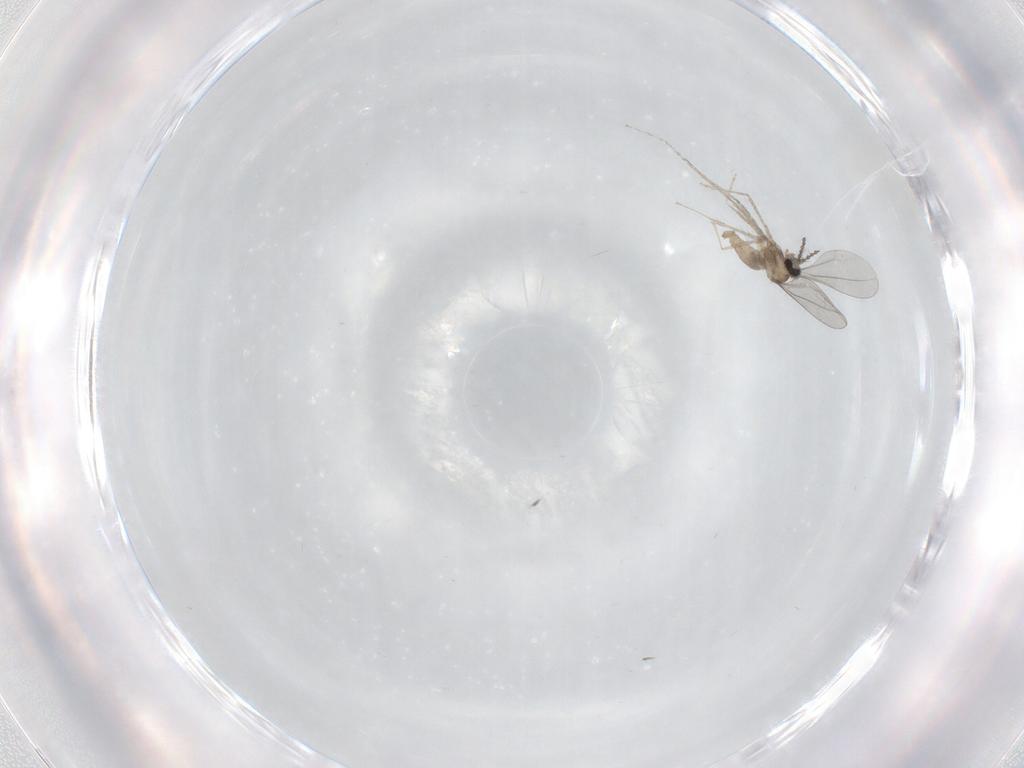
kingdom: Animalia
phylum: Arthropoda
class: Insecta
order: Diptera
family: Cecidomyiidae
